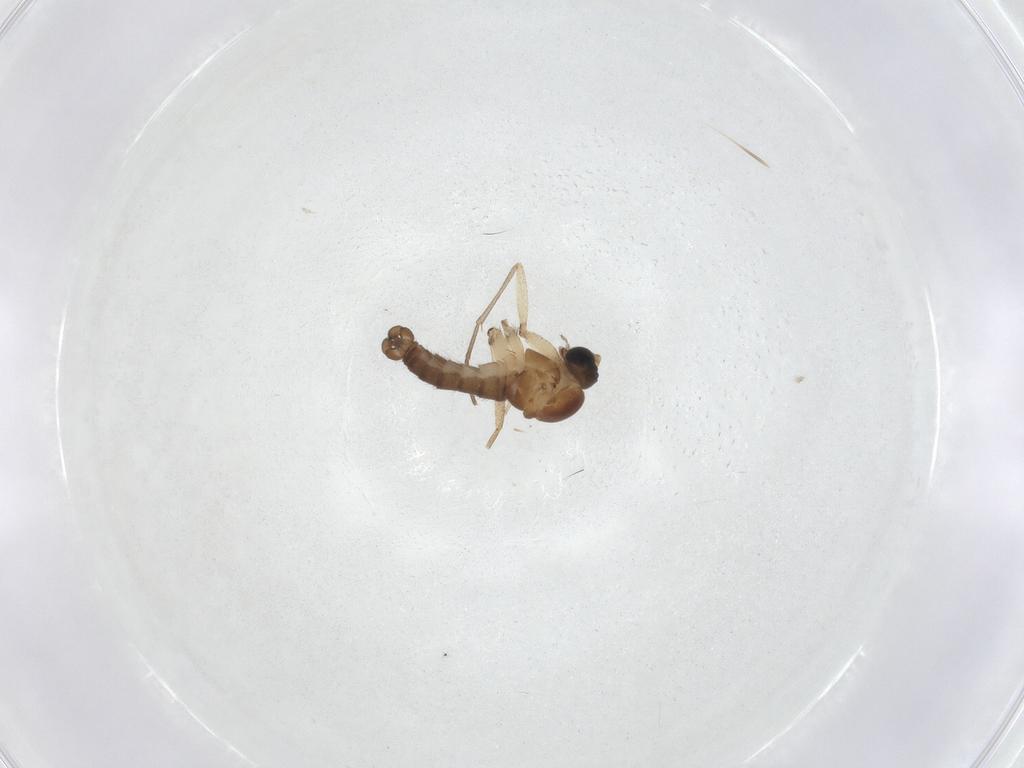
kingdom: Animalia
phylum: Arthropoda
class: Insecta
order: Diptera
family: Sciaridae
